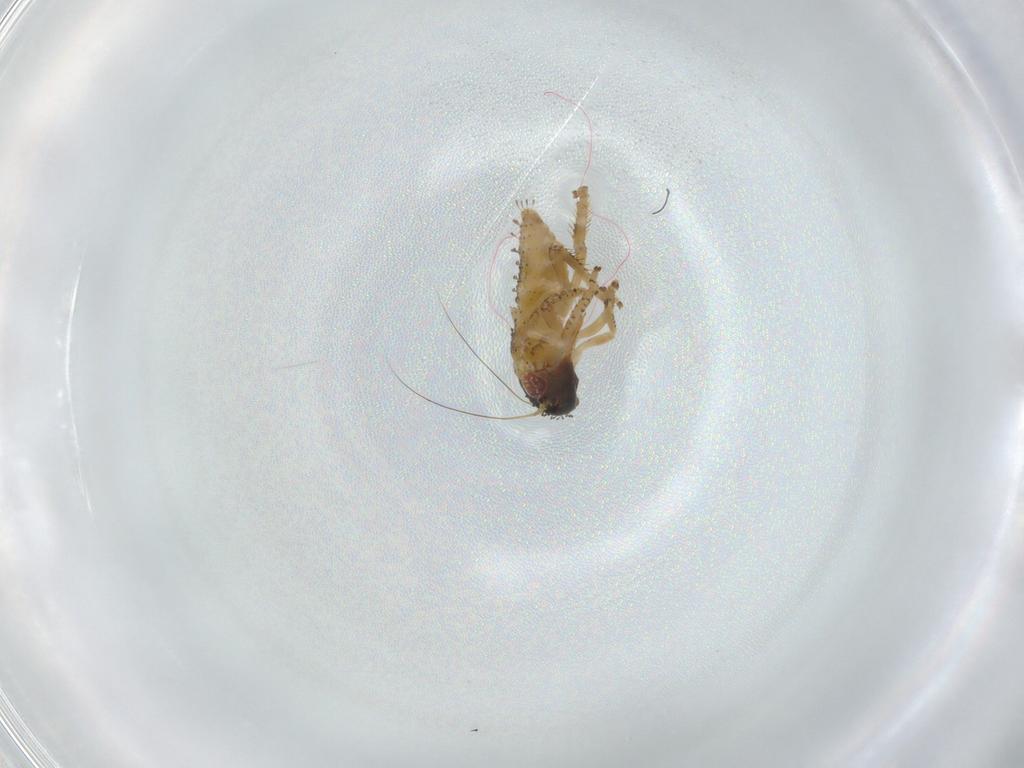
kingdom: Animalia
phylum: Arthropoda
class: Insecta
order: Hemiptera
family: Cicadellidae
